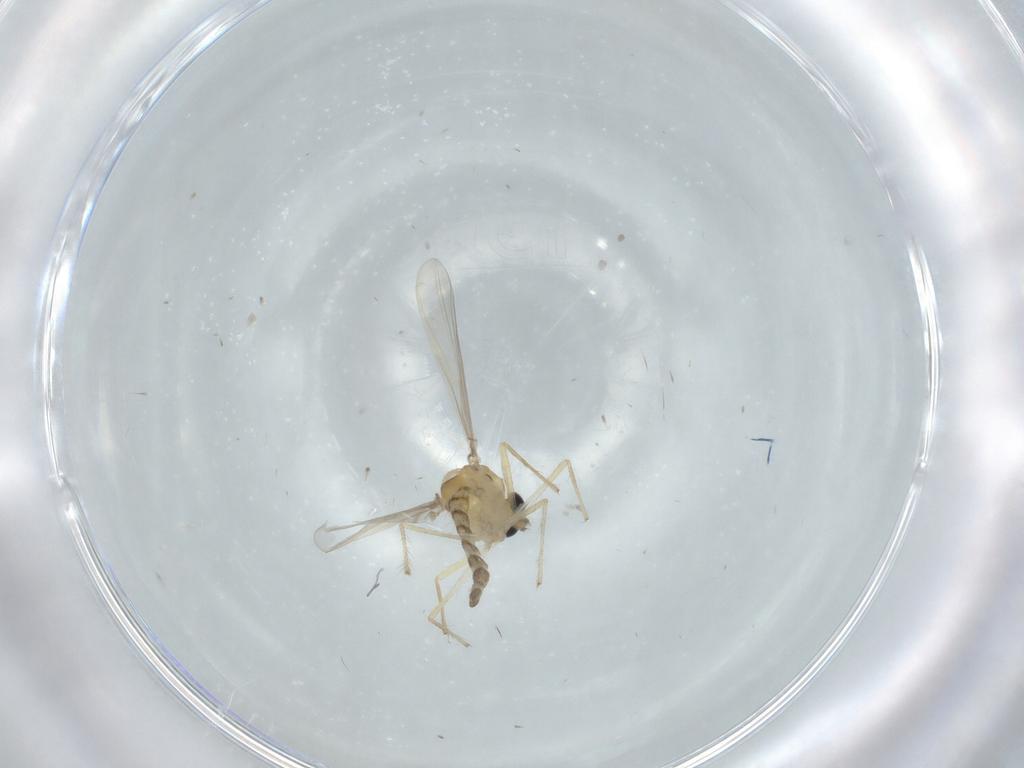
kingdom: Animalia
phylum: Arthropoda
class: Insecta
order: Diptera
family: Chironomidae
